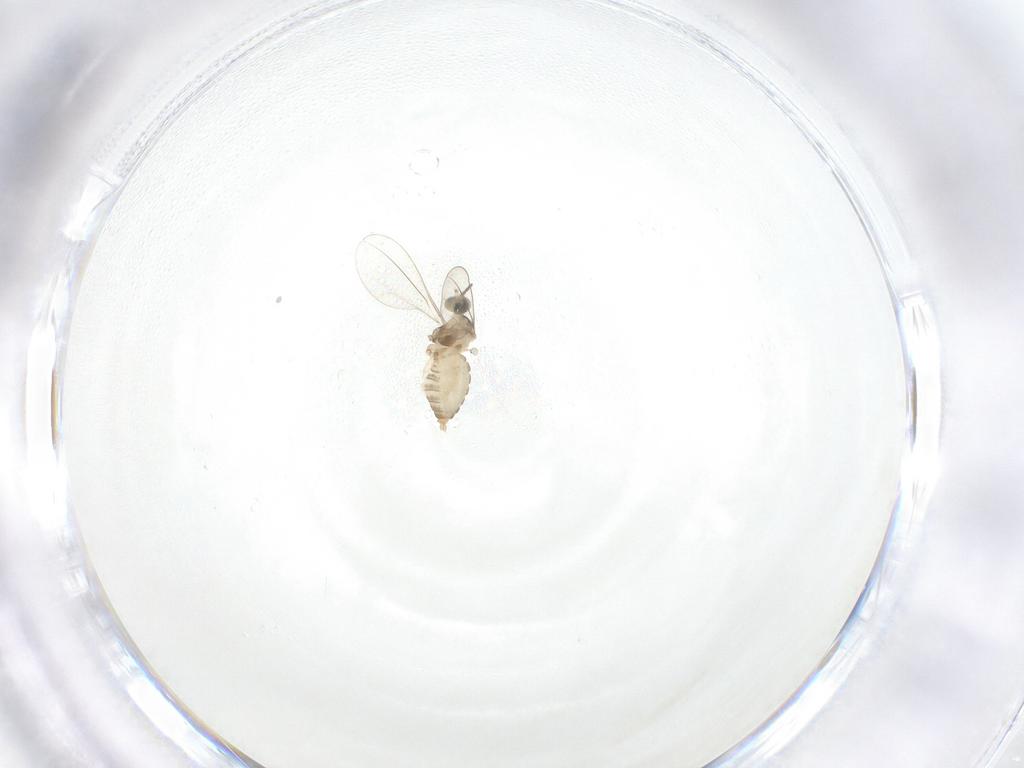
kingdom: Animalia
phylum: Arthropoda
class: Insecta
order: Diptera
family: Cecidomyiidae
